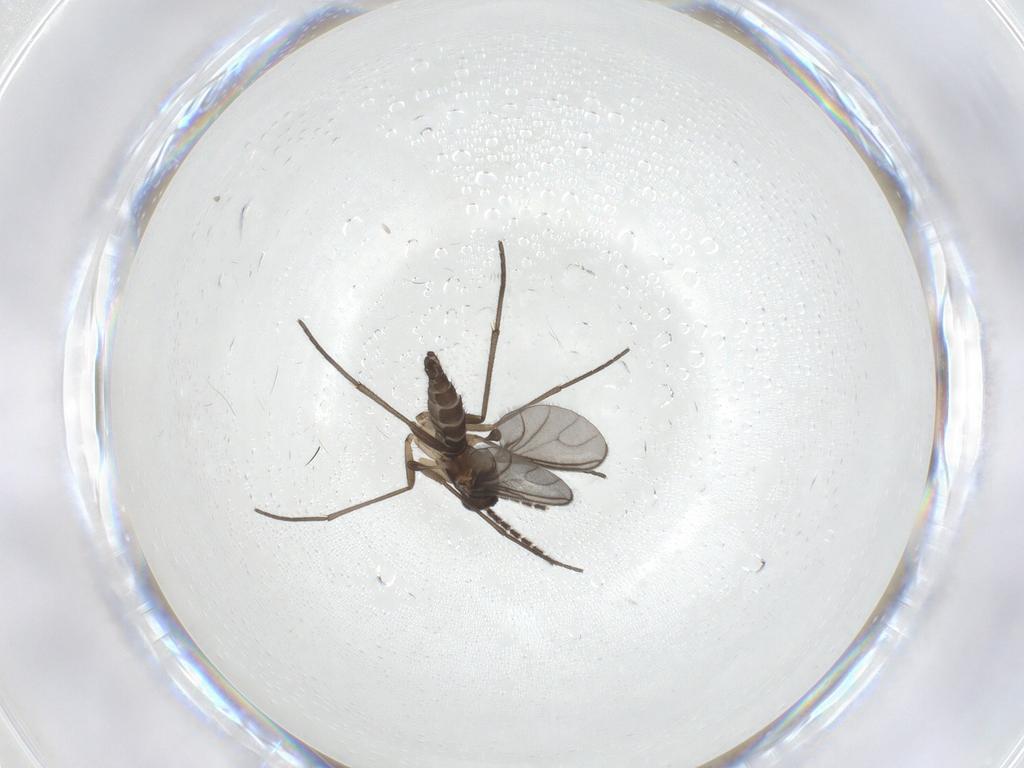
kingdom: Animalia
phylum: Arthropoda
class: Insecta
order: Diptera
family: Sciaridae
